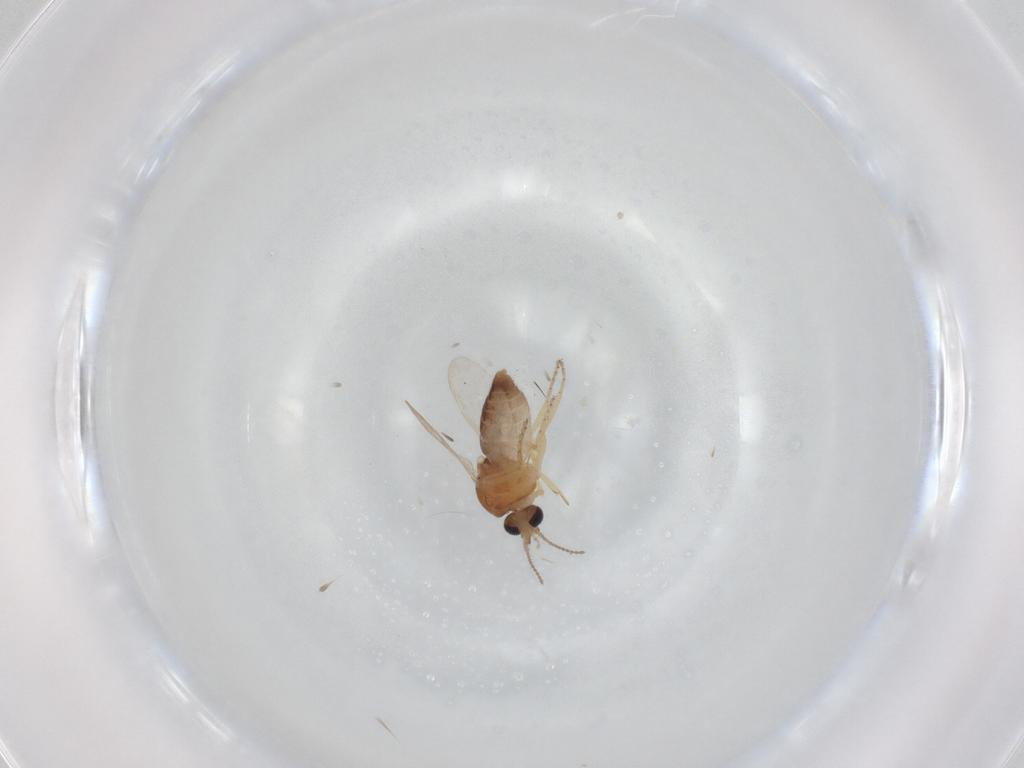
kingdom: Animalia
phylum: Arthropoda
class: Insecta
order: Diptera
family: Ceratopogonidae
